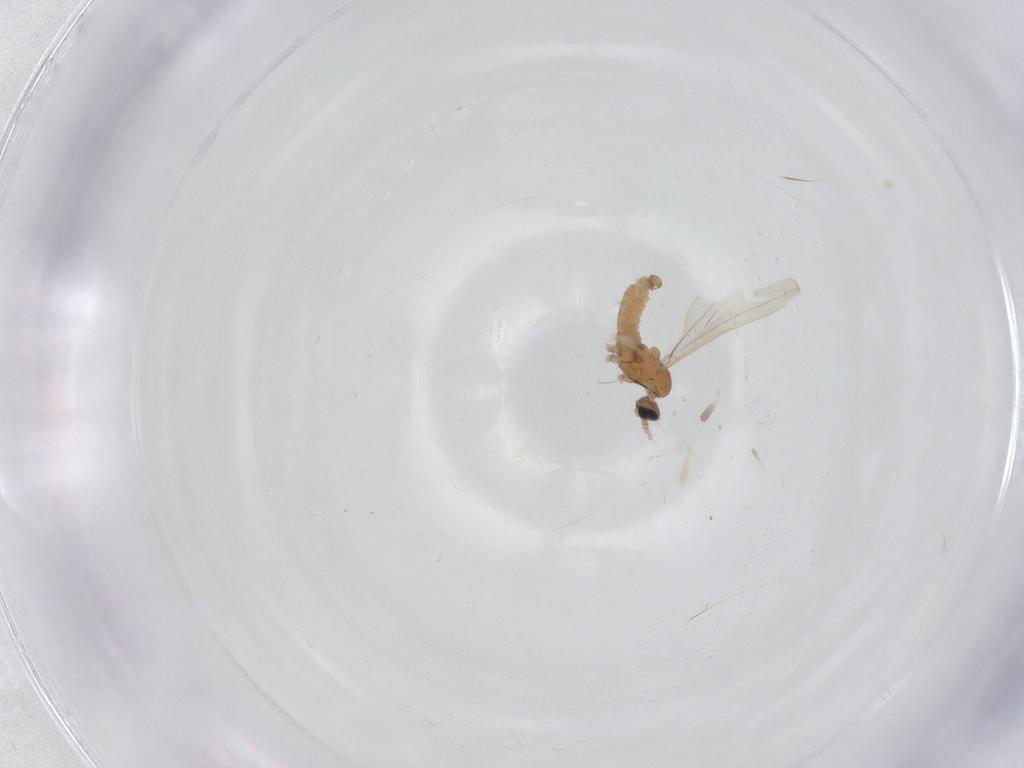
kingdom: Animalia
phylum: Arthropoda
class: Insecta
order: Diptera
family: Cecidomyiidae
